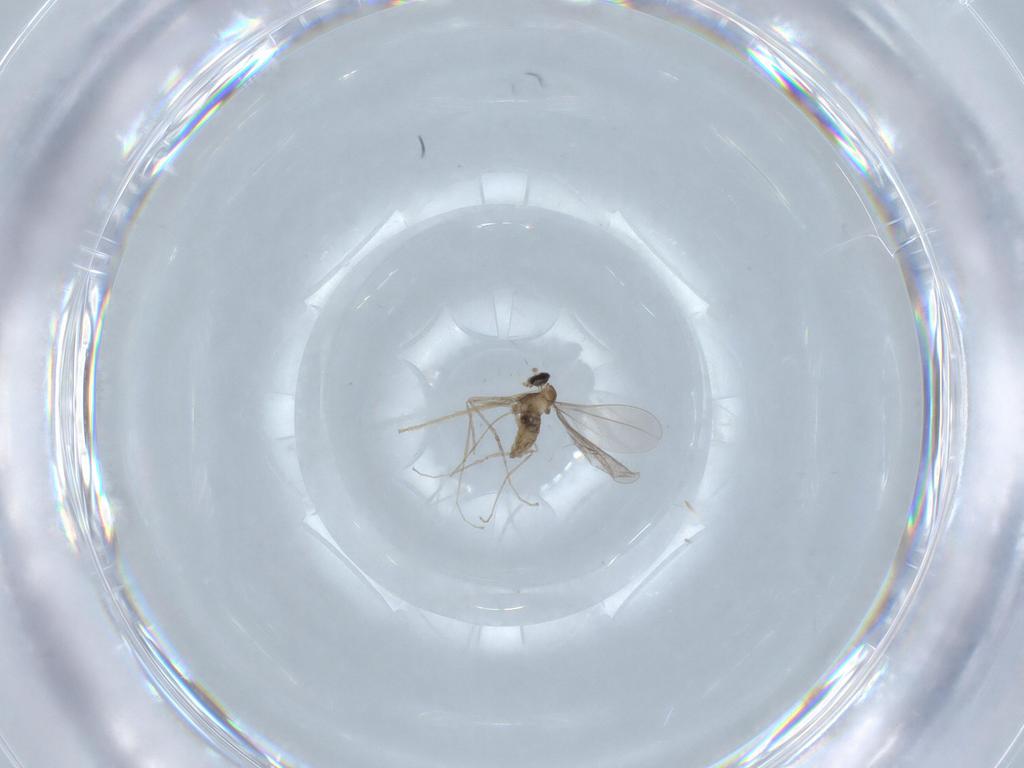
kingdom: Animalia
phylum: Arthropoda
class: Insecta
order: Diptera
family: Cecidomyiidae
